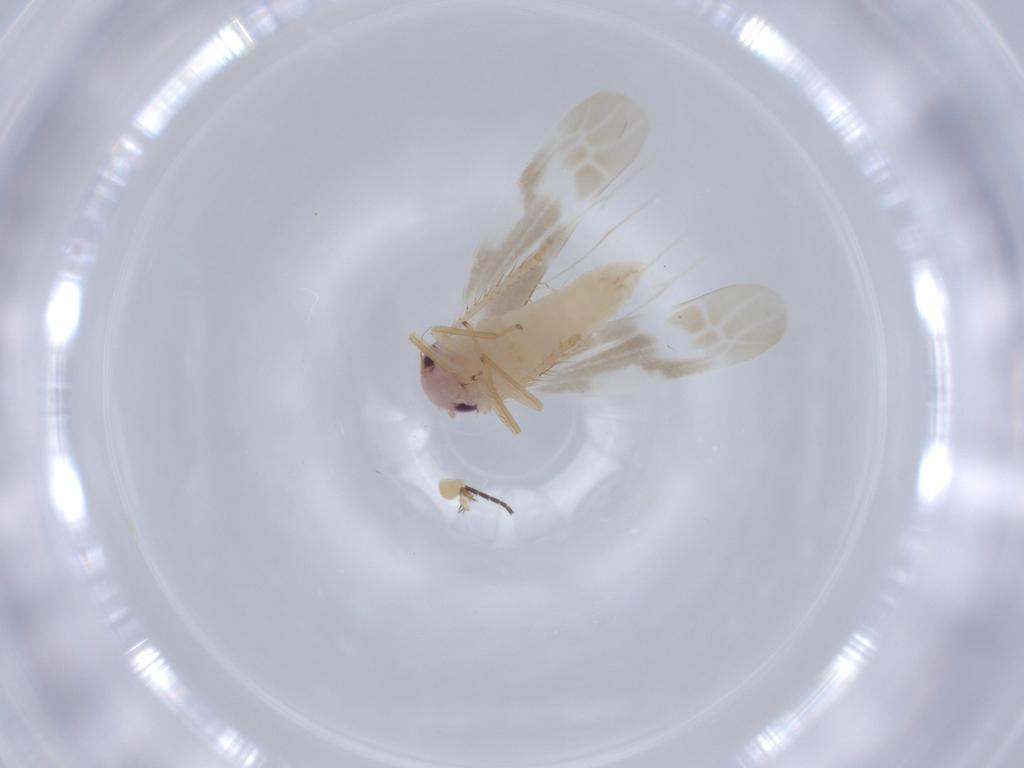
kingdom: Animalia
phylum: Arthropoda
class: Insecta
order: Hemiptera
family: Cicadellidae
